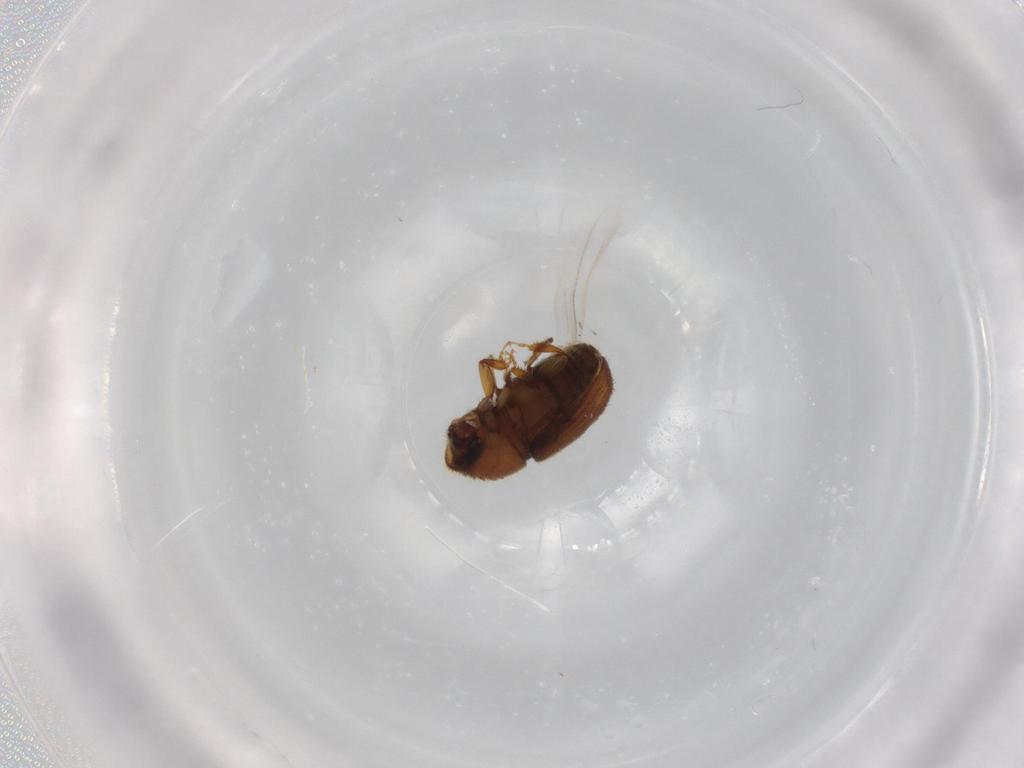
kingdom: Animalia
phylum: Arthropoda
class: Insecta
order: Coleoptera
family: Curculionidae
